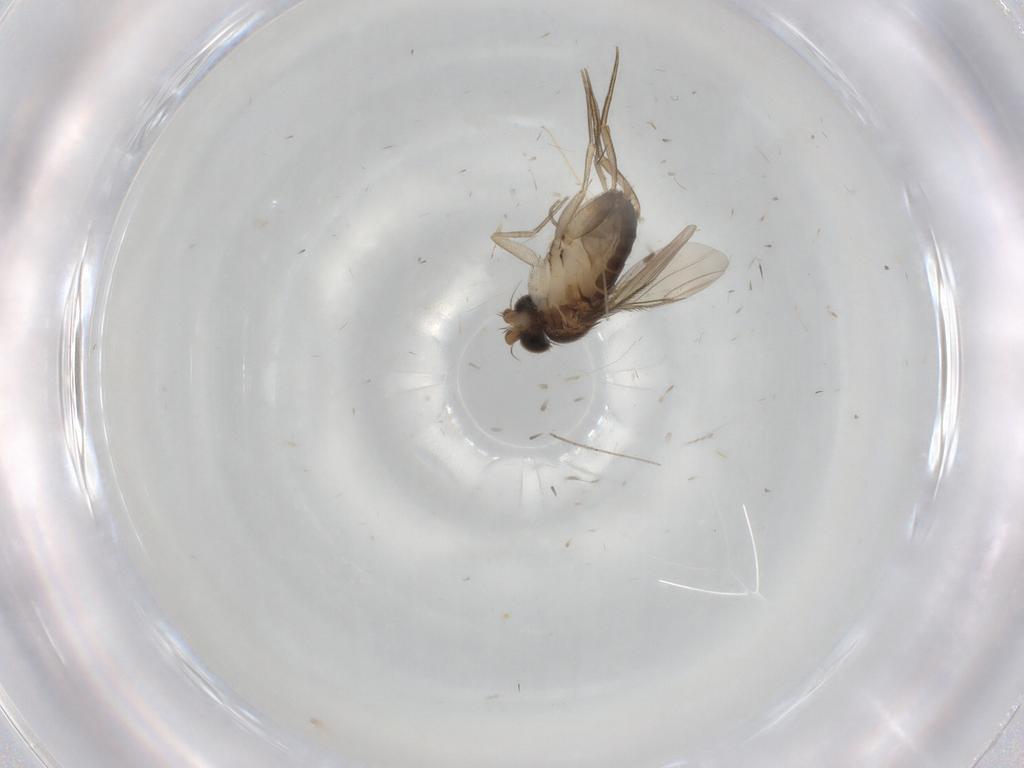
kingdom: Animalia
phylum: Arthropoda
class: Insecta
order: Diptera
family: Phoridae
